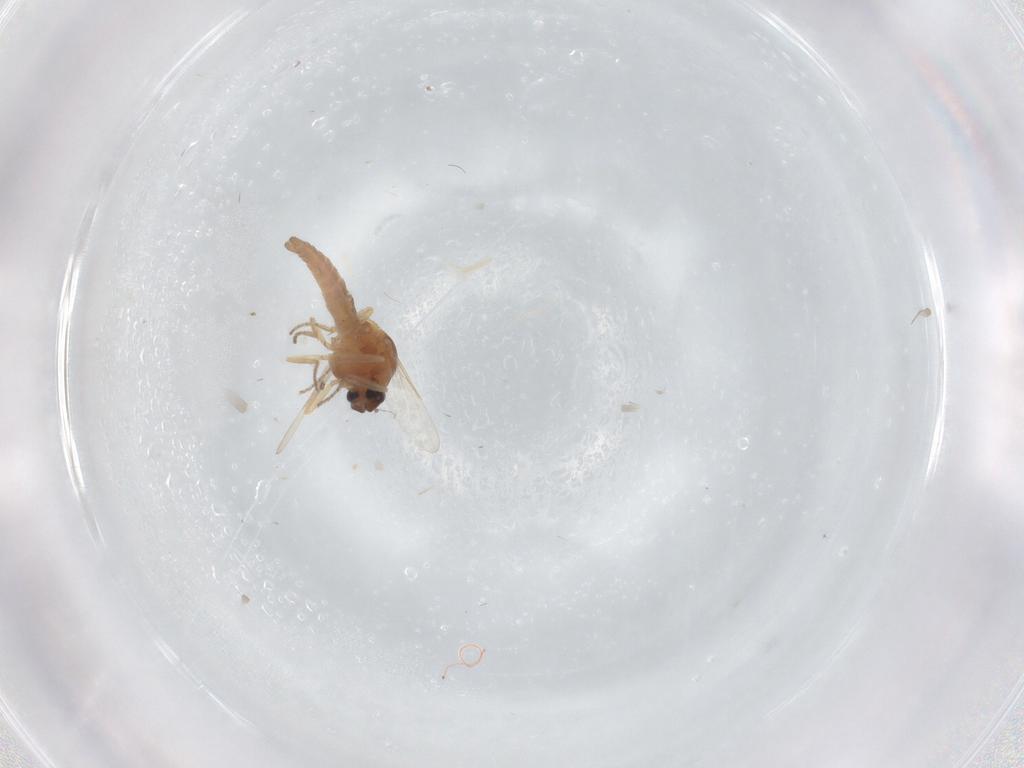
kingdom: Animalia
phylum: Arthropoda
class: Insecta
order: Diptera
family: Ceratopogonidae
